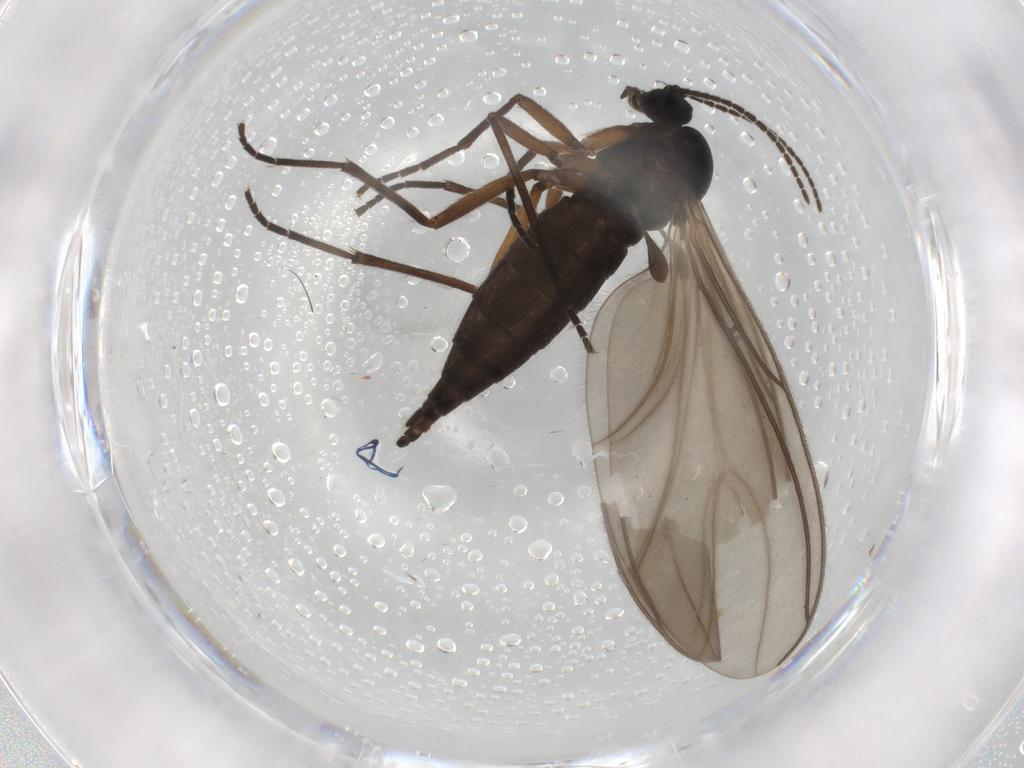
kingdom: Animalia
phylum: Arthropoda
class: Insecta
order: Diptera
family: Sciaridae
